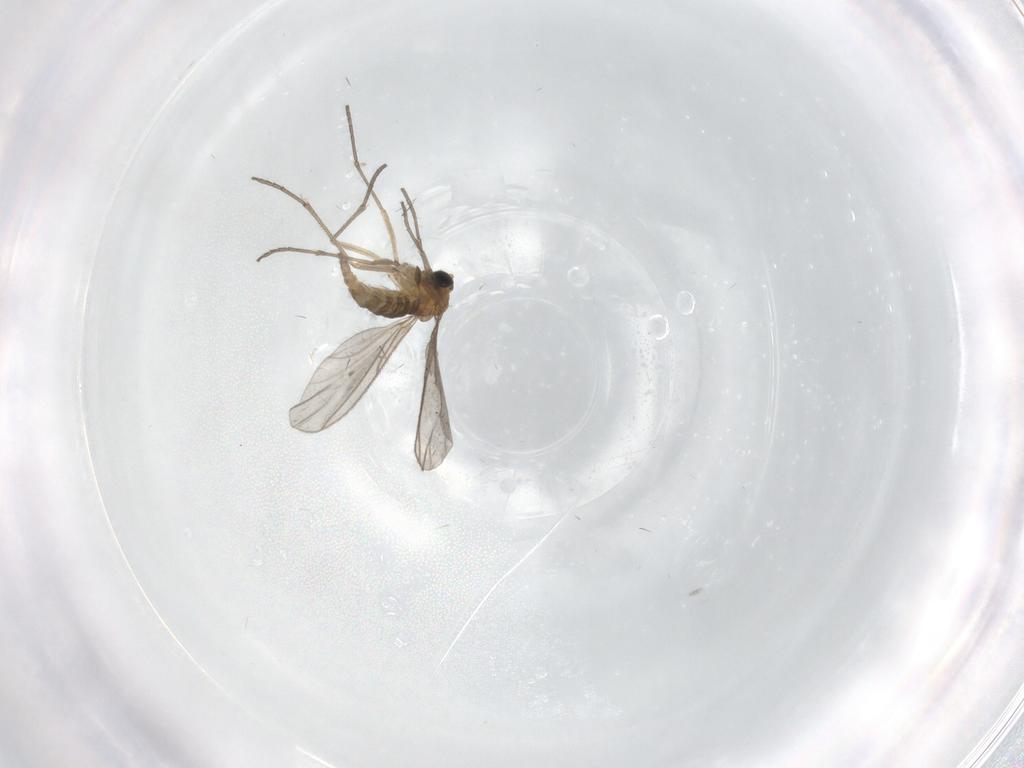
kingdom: Animalia
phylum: Arthropoda
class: Insecta
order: Diptera
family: Sciaridae
